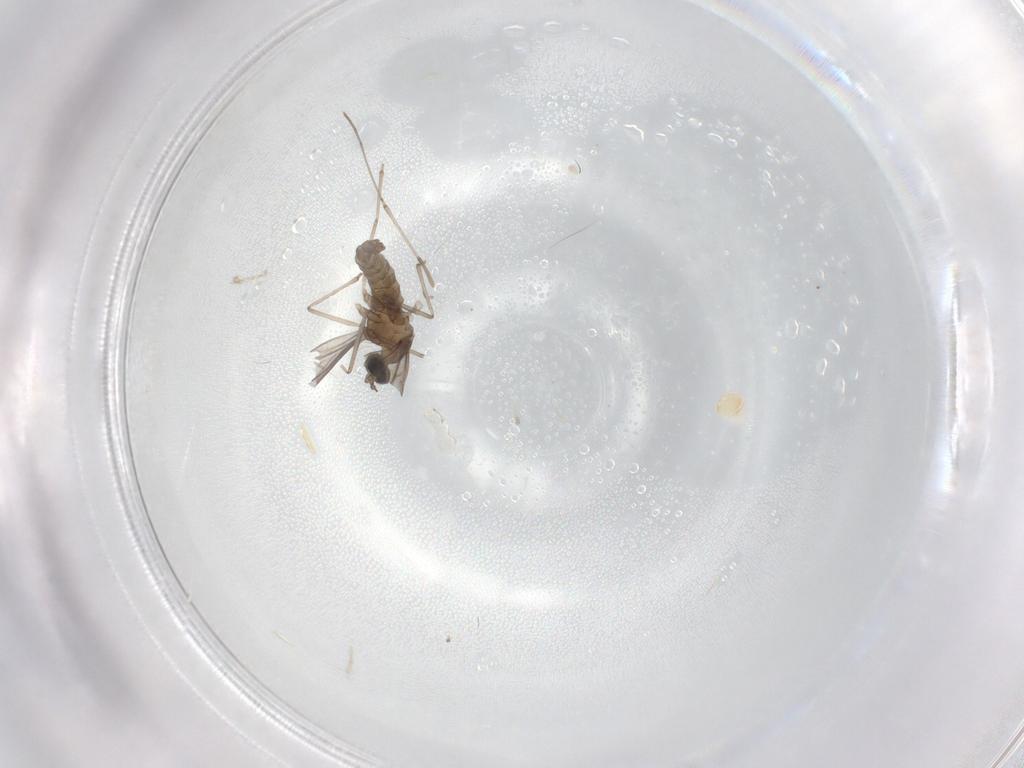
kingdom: Animalia
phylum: Arthropoda
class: Insecta
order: Diptera
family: Cecidomyiidae
